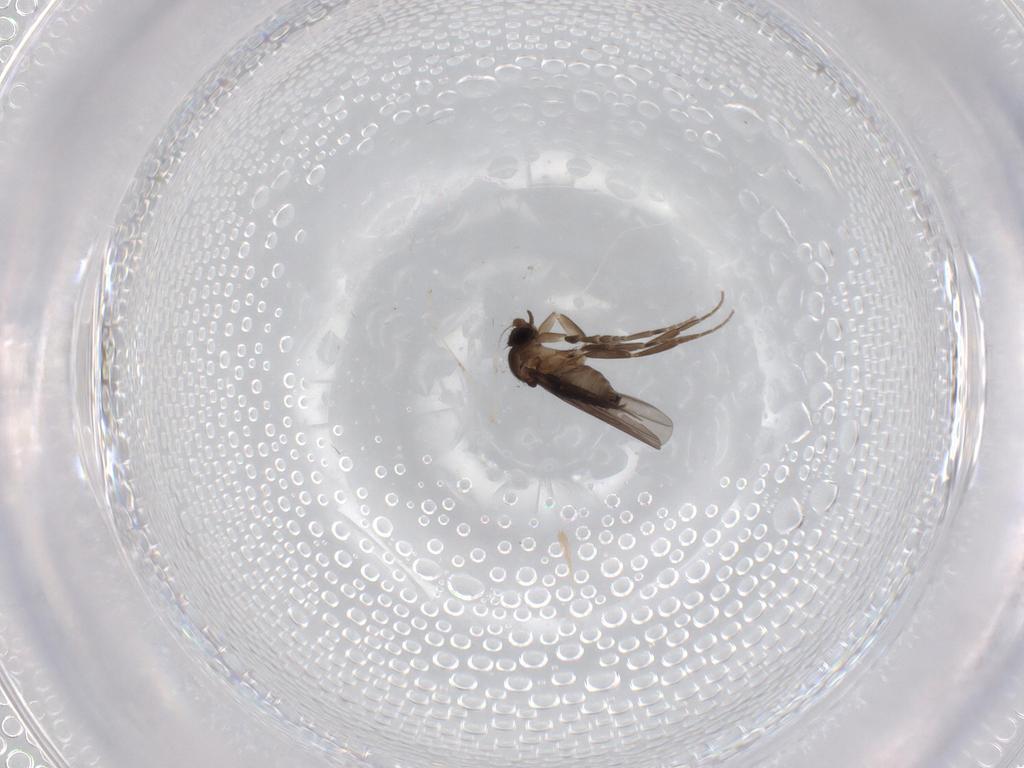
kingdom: Animalia
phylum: Arthropoda
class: Insecta
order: Diptera
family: Phoridae
